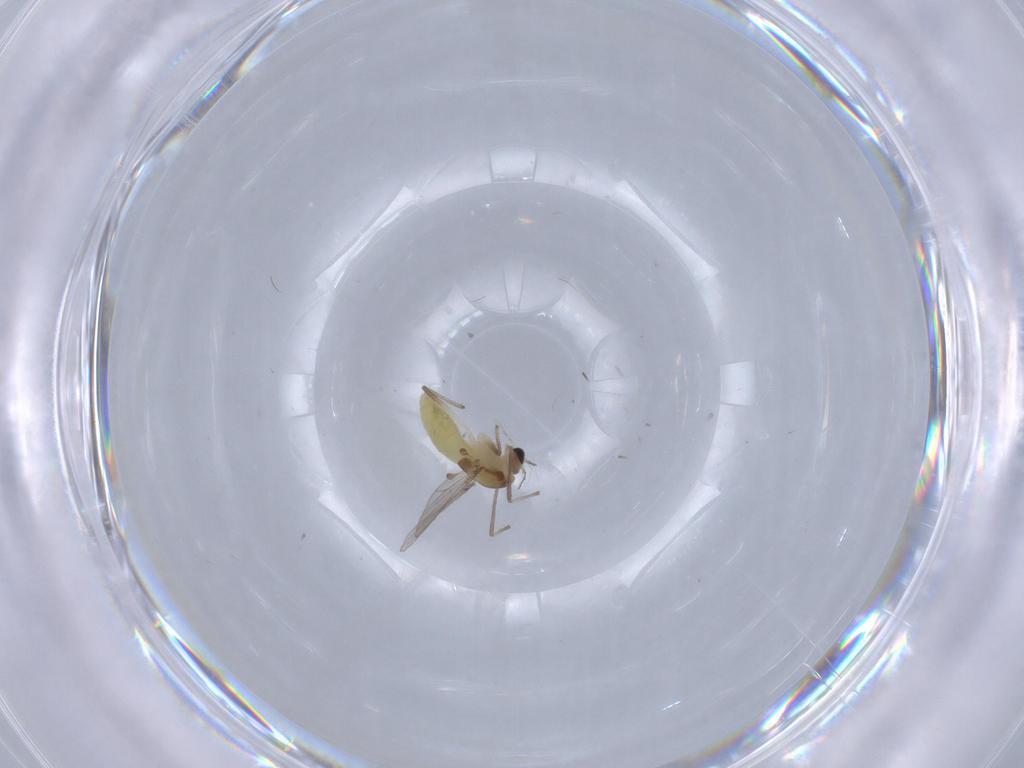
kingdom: Animalia
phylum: Arthropoda
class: Insecta
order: Diptera
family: Chironomidae
